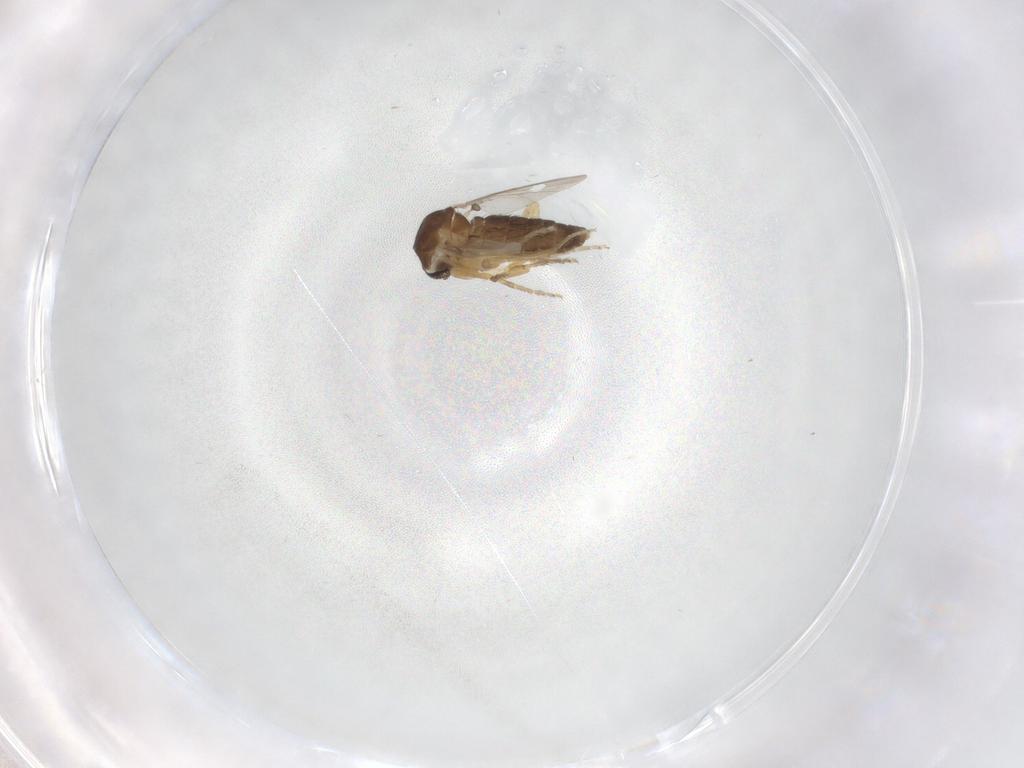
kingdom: Animalia
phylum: Arthropoda
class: Insecta
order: Diptera
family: Ceratopogonidae
